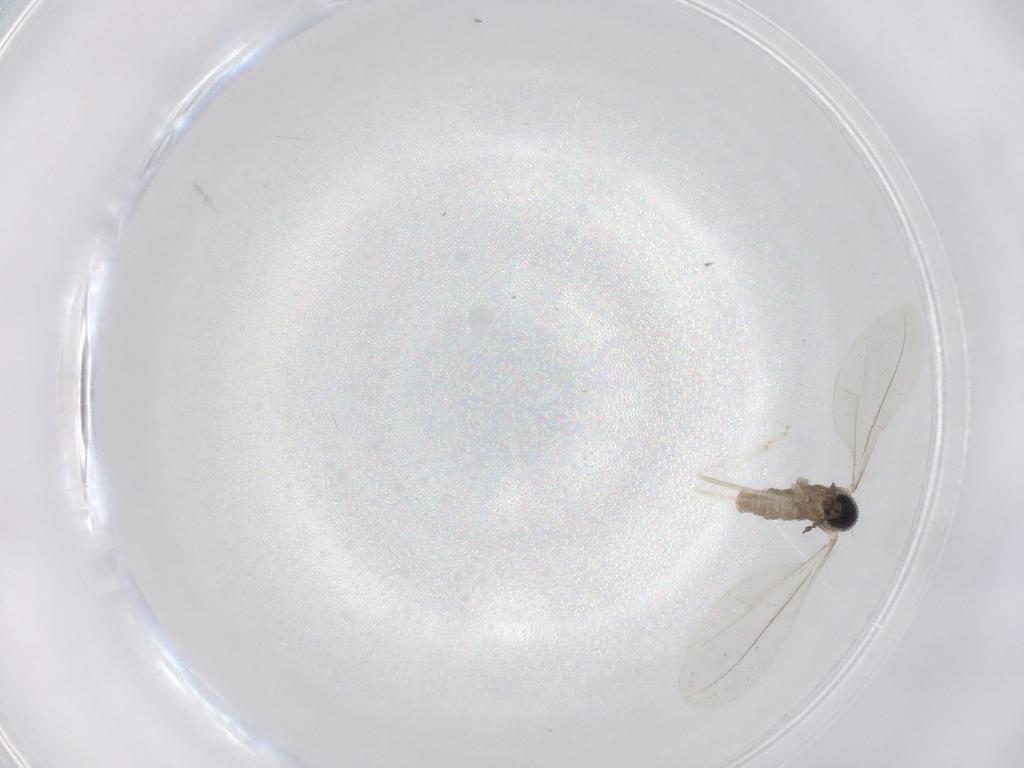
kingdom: Animalia
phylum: Arthropoda
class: Insecta
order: Diptera
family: Cecidomyiidae
